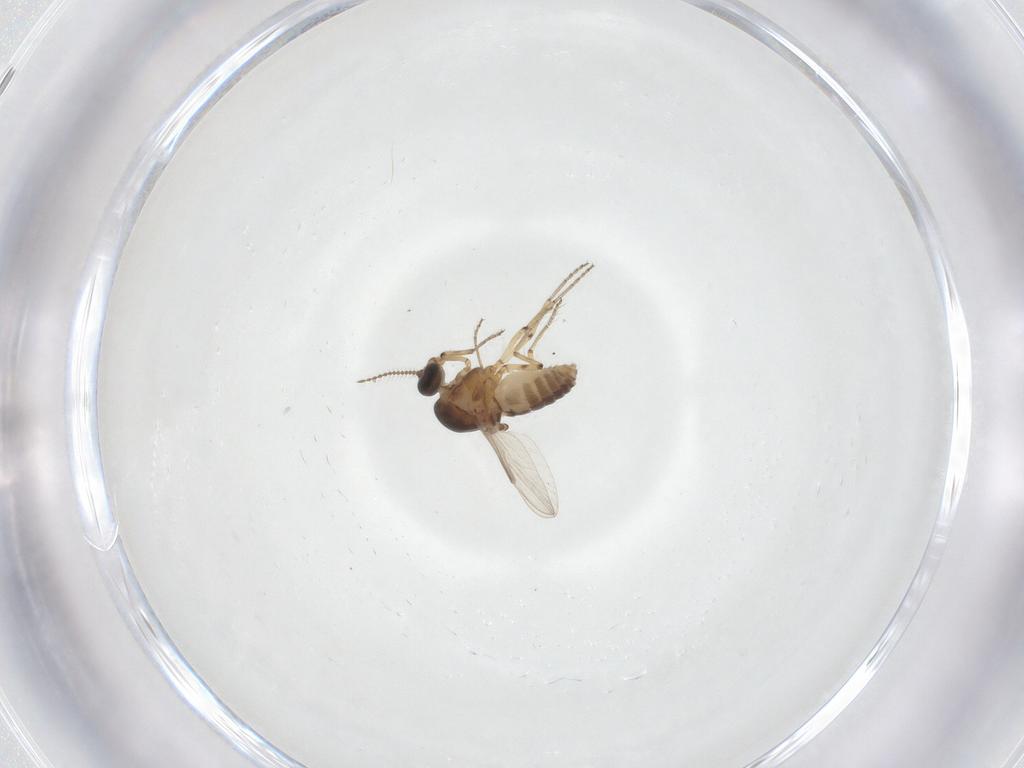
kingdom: Animalia
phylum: Arthropoda
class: Insecta
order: Diptera
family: Ceratopogonidae
